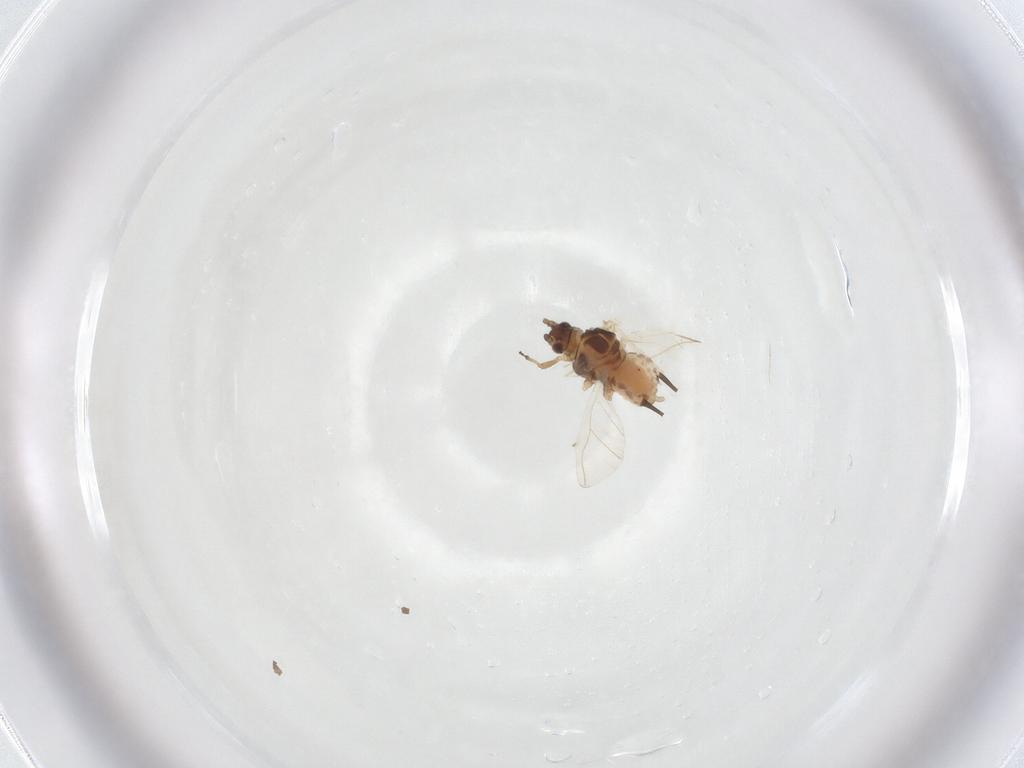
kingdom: Animalia
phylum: Arthropoda
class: Insecta
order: Hemiptera
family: Aphididae
